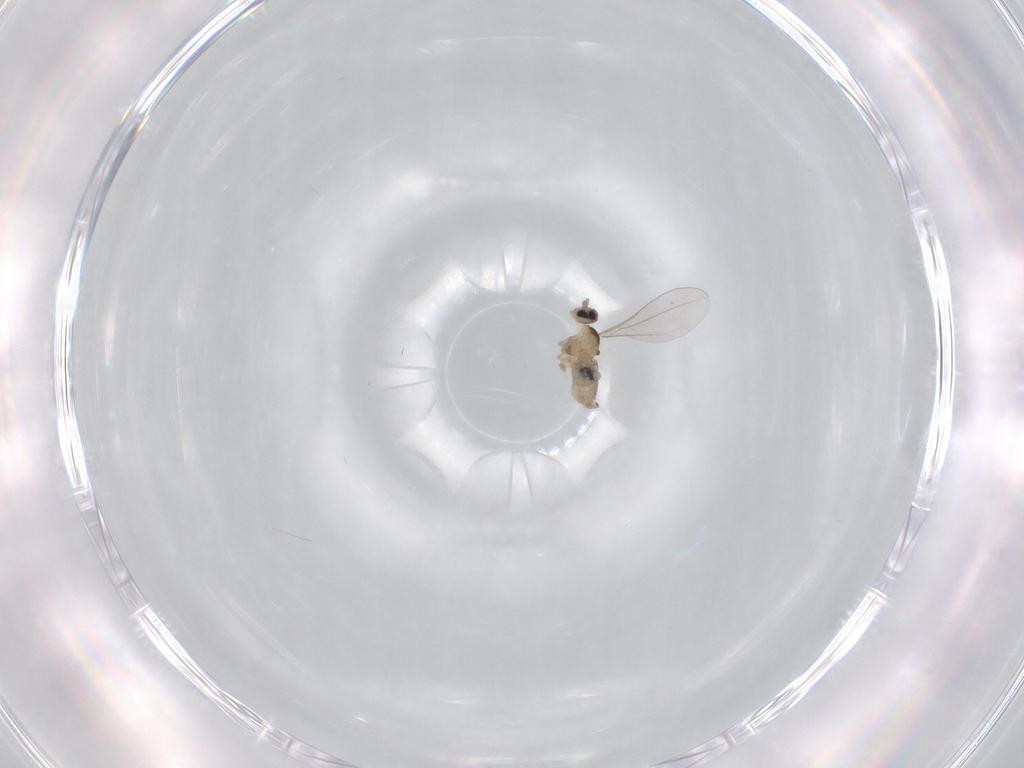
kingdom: Animalia
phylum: Arthropoda
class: Insecta
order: Diptera
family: Cecidomyiidae
